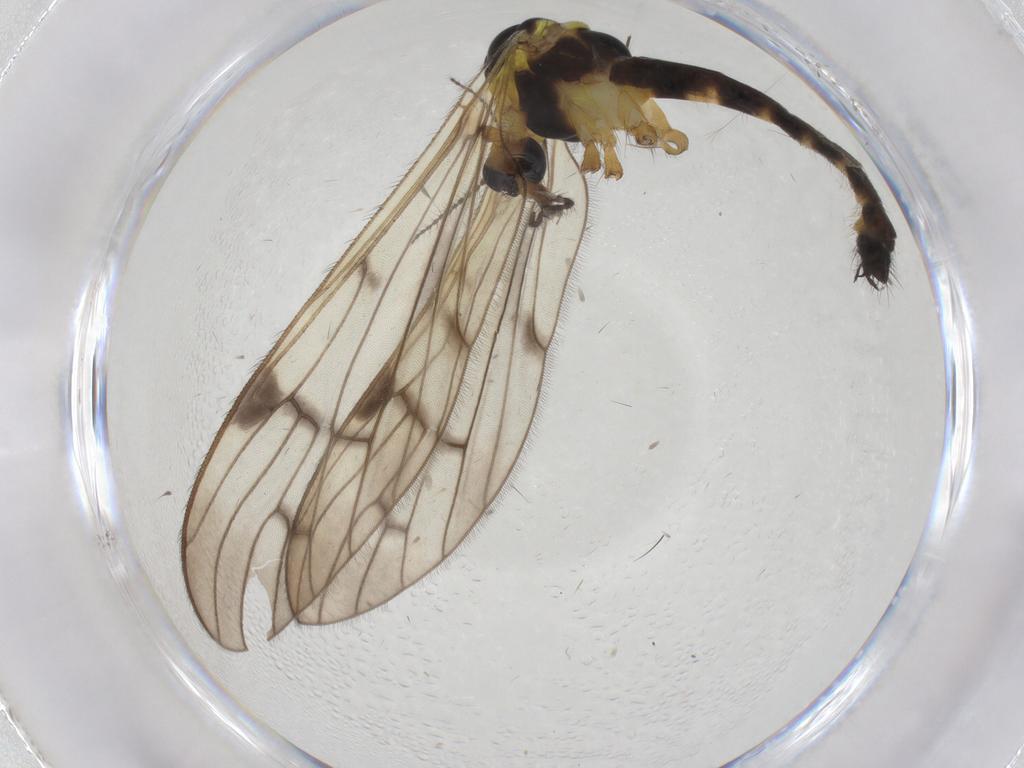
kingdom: Animalia
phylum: Arthropoda
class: Insecta
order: Diptera
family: Limoniidae
